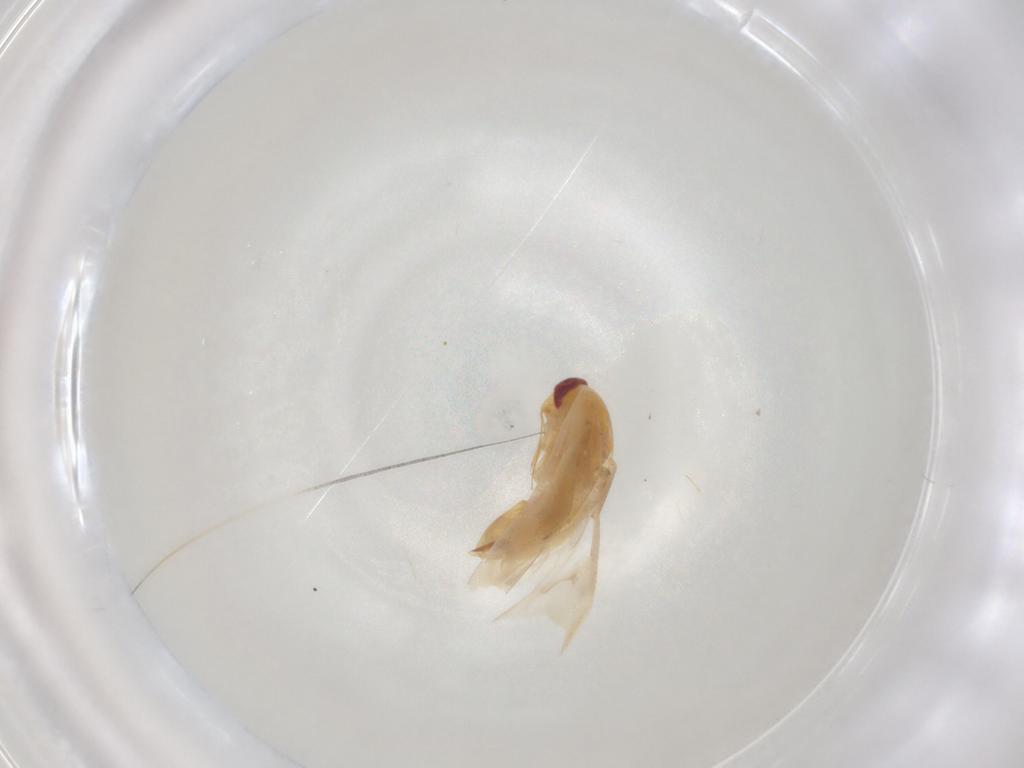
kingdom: Animalia
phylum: Arthropoda
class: Insecta
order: Hemiptera
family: Miridae
